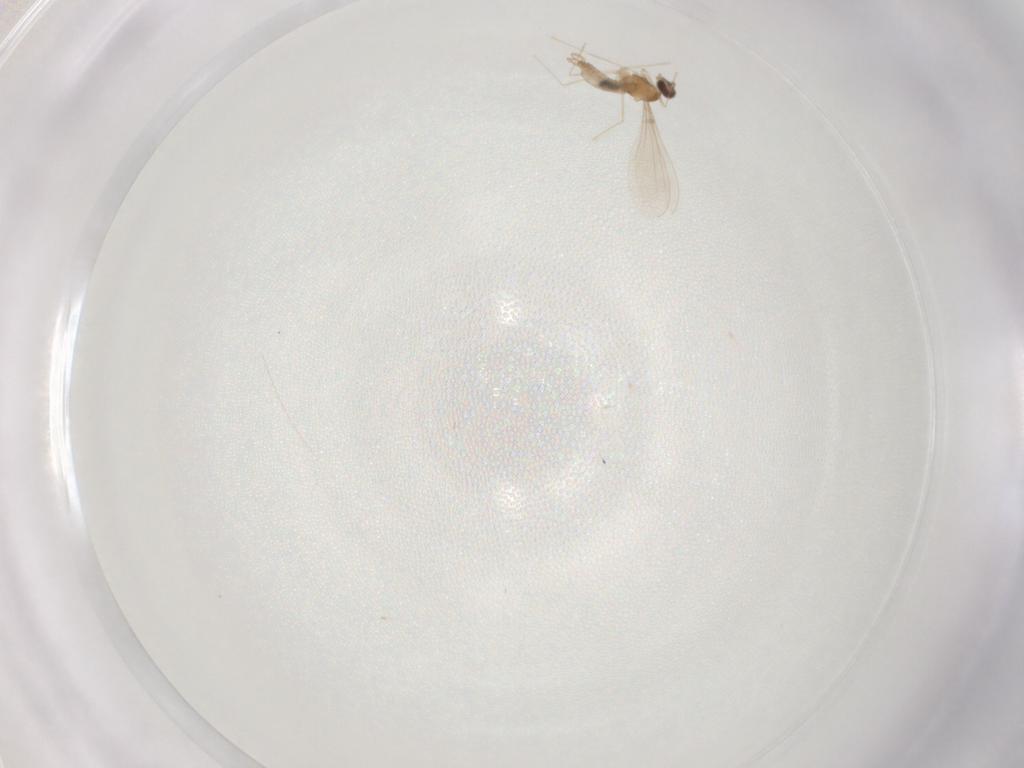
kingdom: Animalia
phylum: Arthropoda
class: Insecta
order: Diptera
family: Cecidomyiidae
